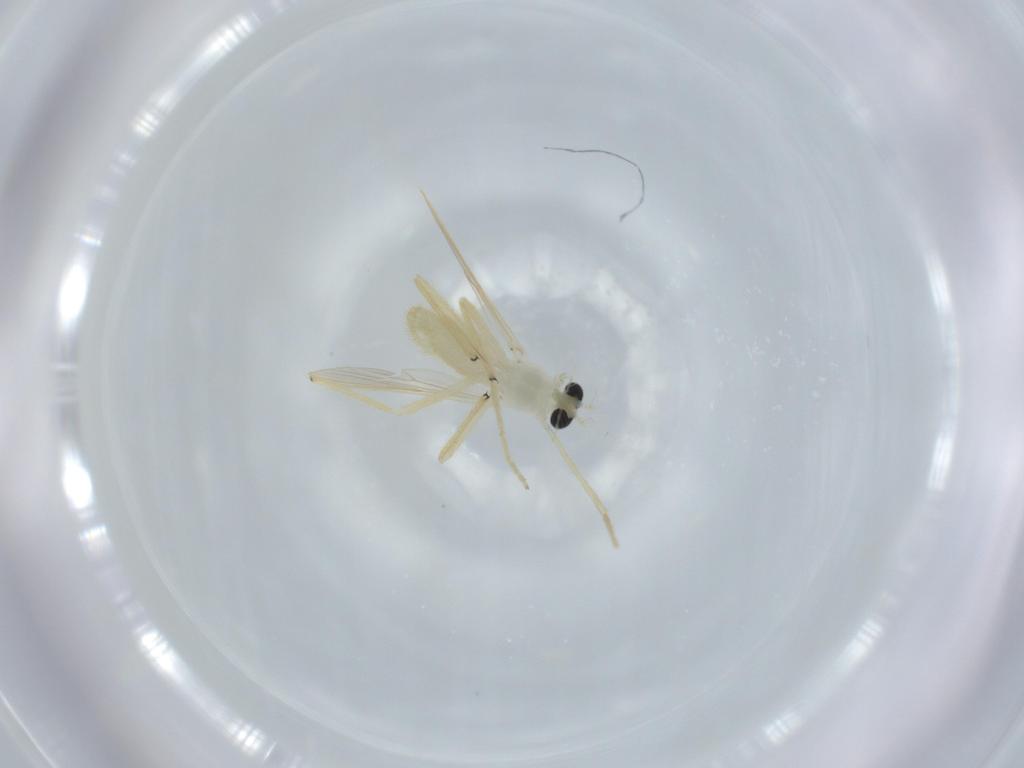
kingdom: Animalia
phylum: Arthropoda
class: Insecta
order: Diptera
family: Chironomidae
